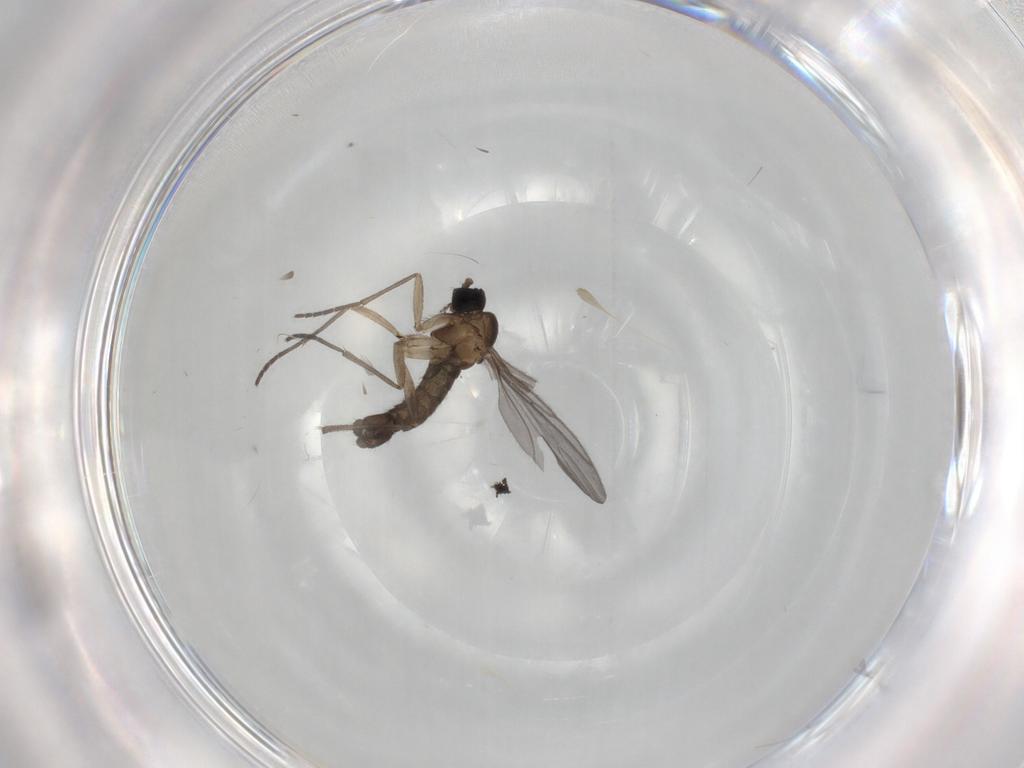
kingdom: Animalia
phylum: Arthropoda
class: Insecta
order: Diptera
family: Sciaridae
